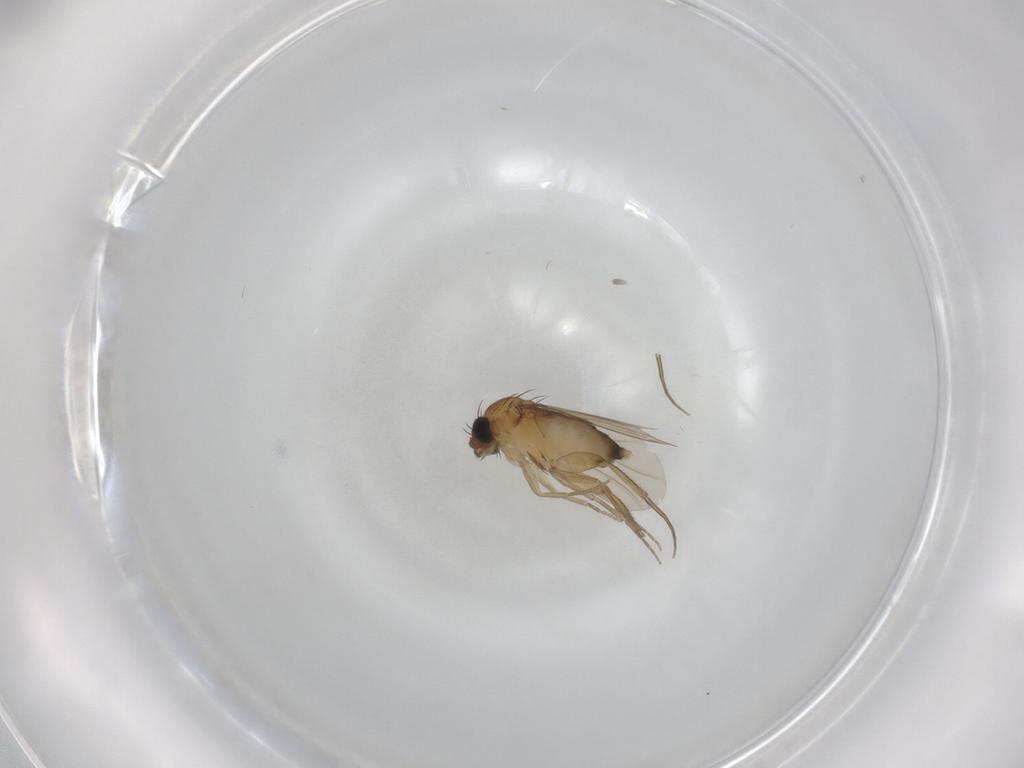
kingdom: Animalia
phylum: Arthropoda
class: Insecta
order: Diptera
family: Phoridae
